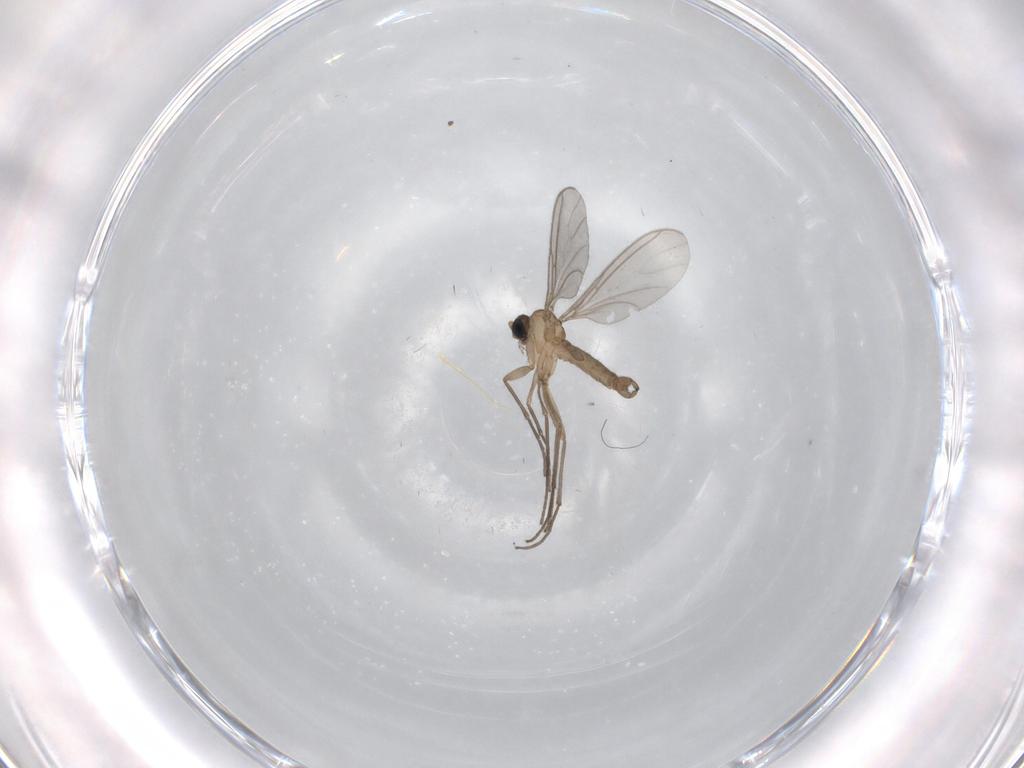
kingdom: Animalia
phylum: Arthropoda
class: Insecta
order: Diptera
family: Sciaridae
